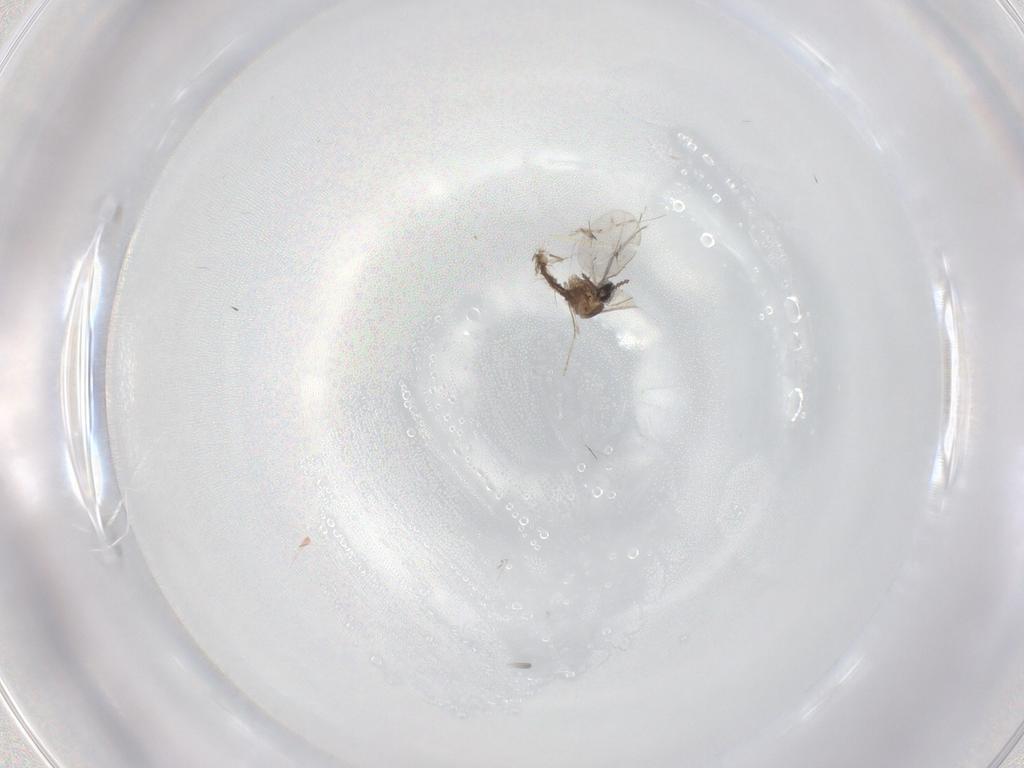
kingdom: Animalia
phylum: Arthropoda
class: Insecta
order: Diptera
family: Cecidomyiidae
